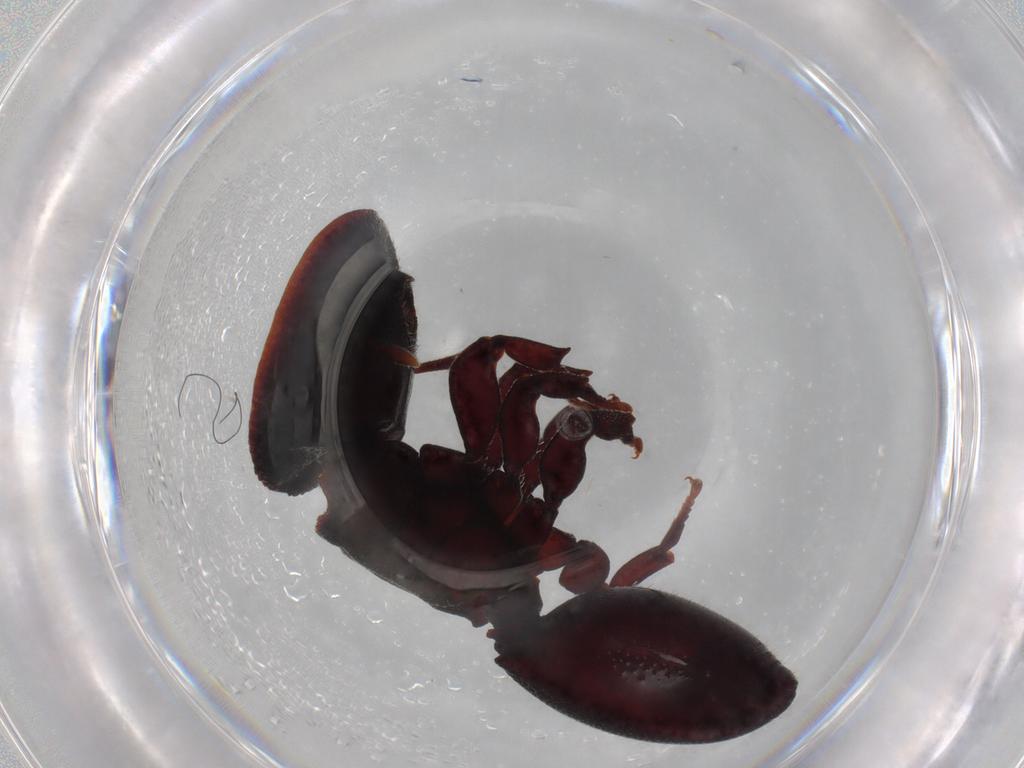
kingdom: Animalia
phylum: Arthropoda
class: Insecta
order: Hymenoptera
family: Formicidae
